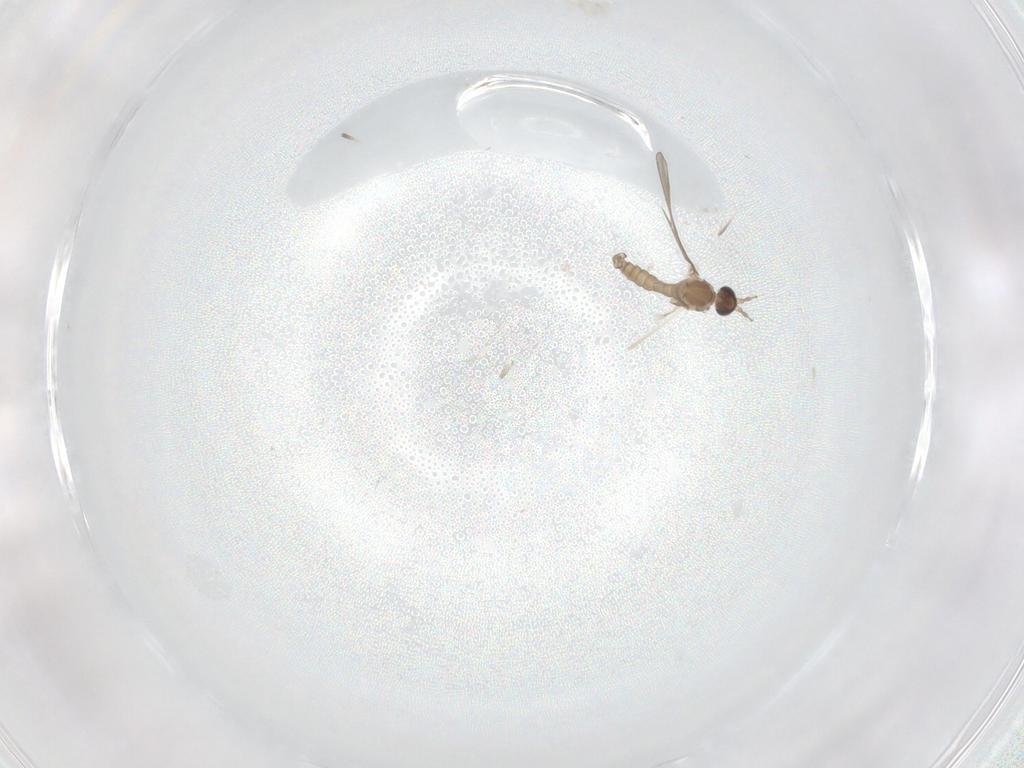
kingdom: Animalia
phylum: Arthropoda
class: Insecta
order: Diptera
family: Cecidomyiidae
